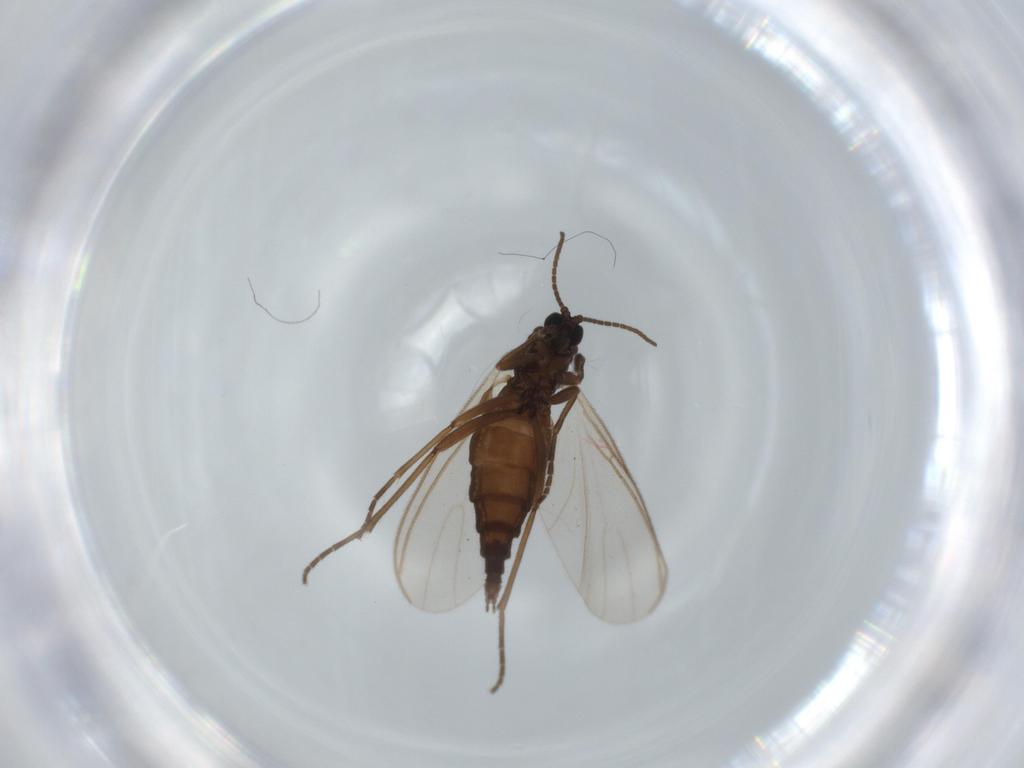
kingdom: Animalia
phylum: Arthropoda
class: Insecta
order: Diptera
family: Sciaridae
